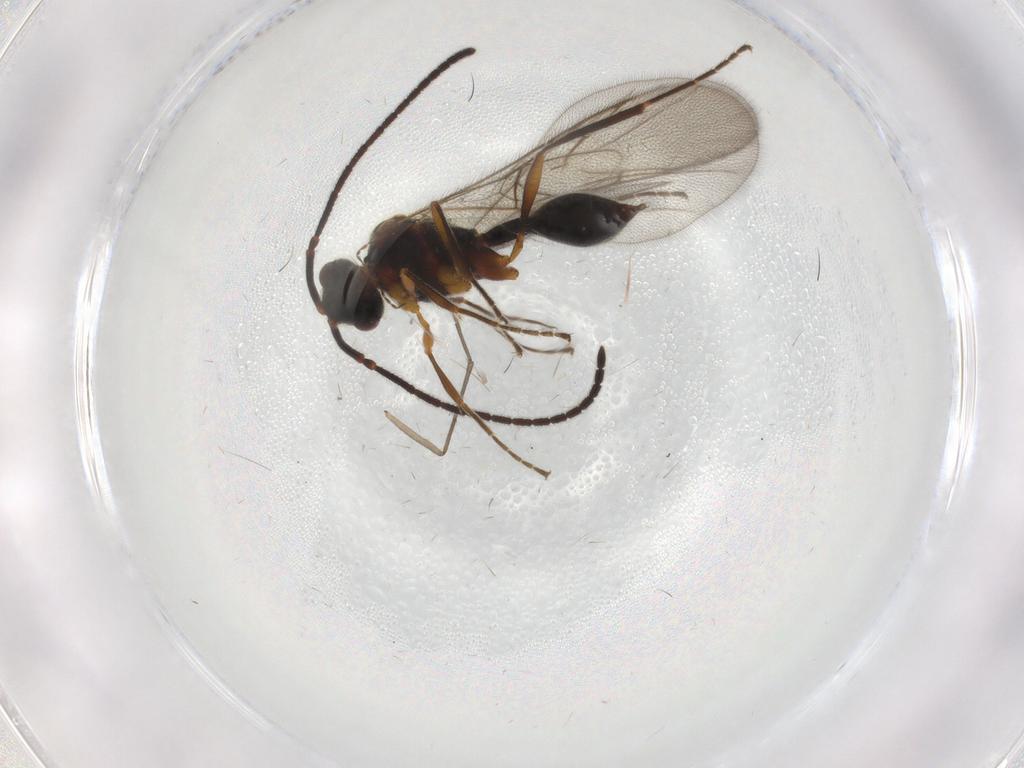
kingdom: Animalia
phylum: Arthropoda
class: Insecta
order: Hymenoptera
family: Diapriidae
